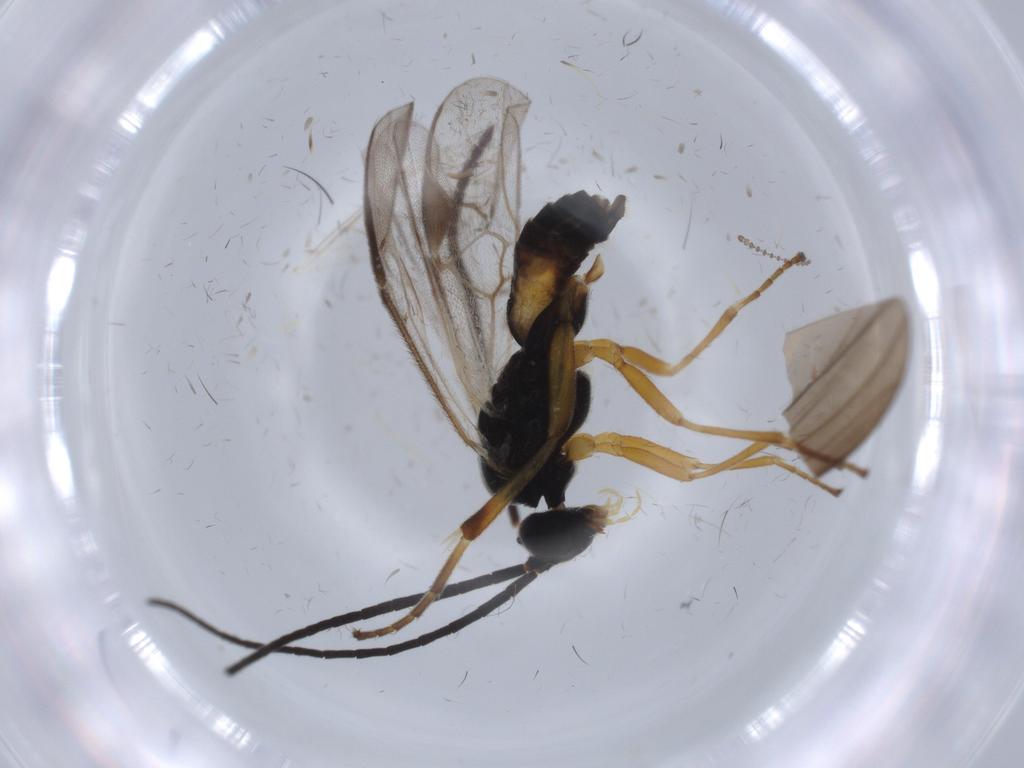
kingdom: Animalia
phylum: Arthropoda
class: Insecta
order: Hymenoptera
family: Braconidae
